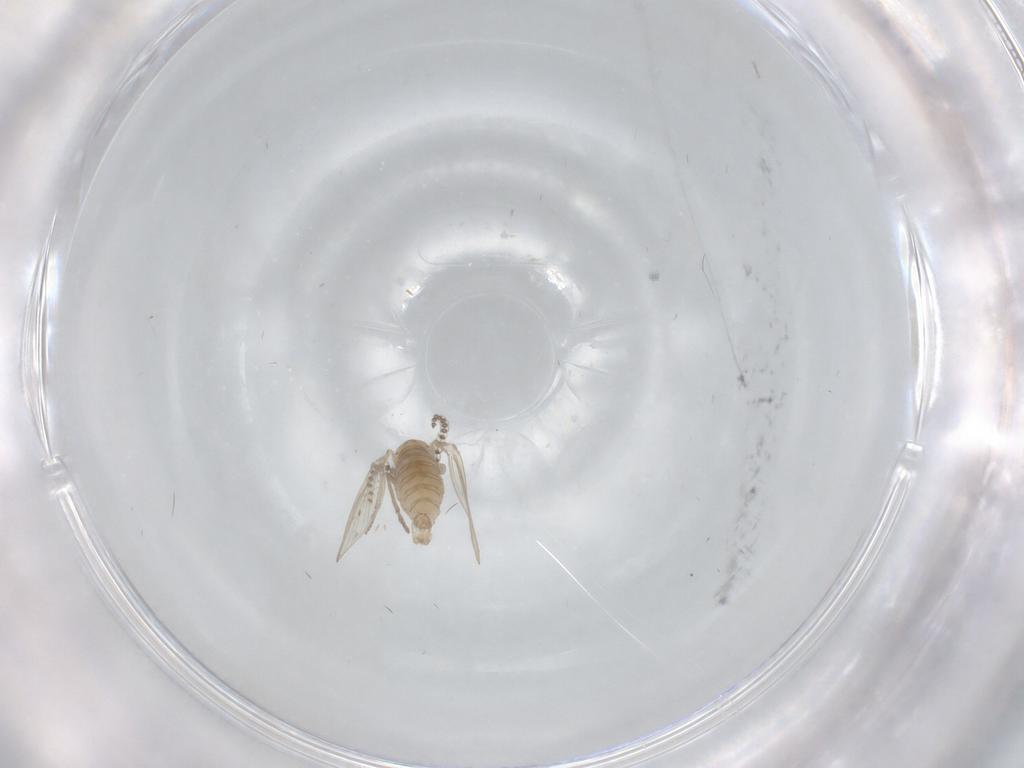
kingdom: Animalia
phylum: Arthropoda
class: Insecta
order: Diptera
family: Psychodidae
